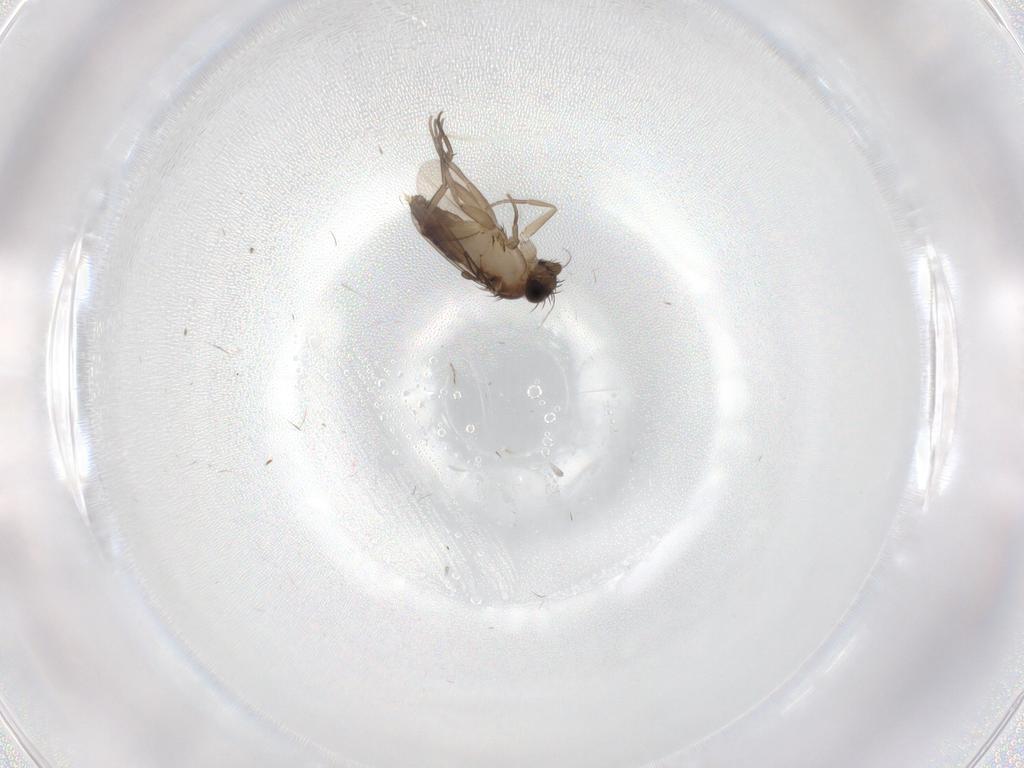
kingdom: Animalia
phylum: Arthropoda
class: Insecta
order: Diptera
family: Phoridae
